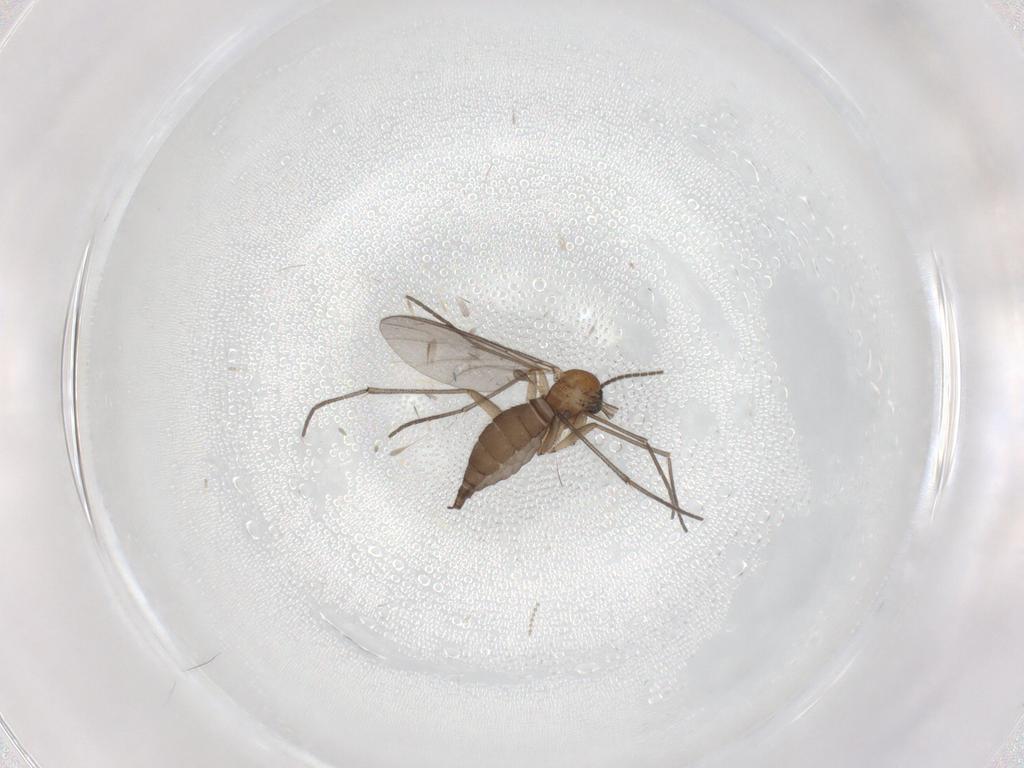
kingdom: Animalia
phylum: Arthropoda
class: Insecta
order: Diptera
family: Sciaridae
